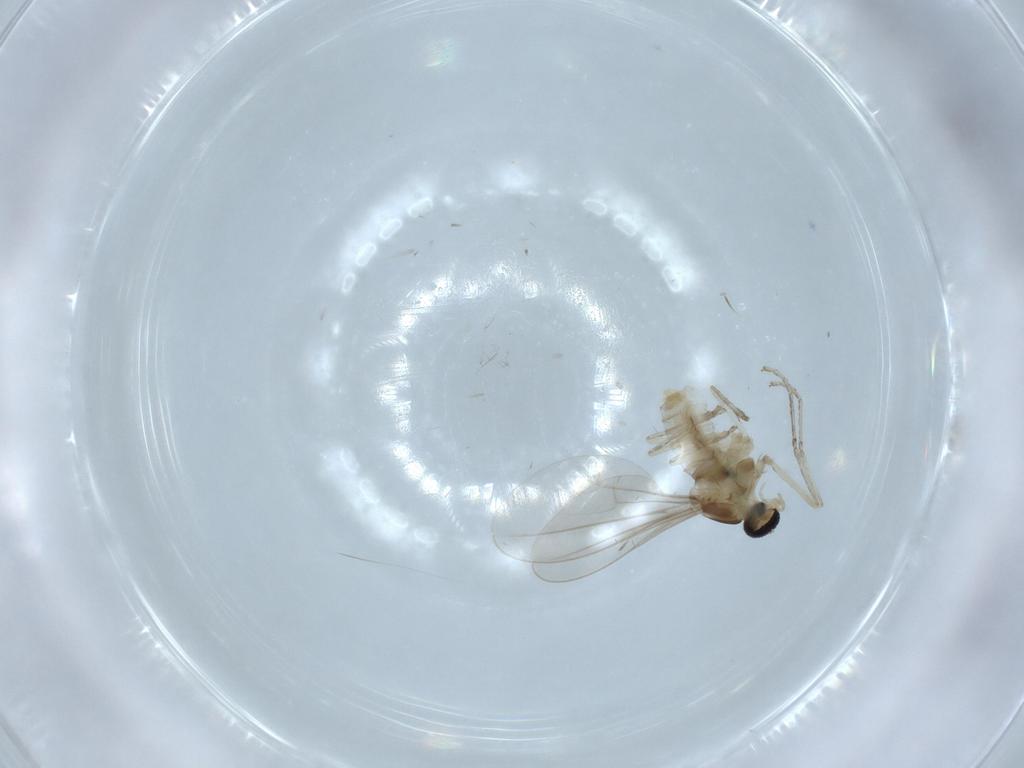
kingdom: Animalia
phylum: Arthropoda
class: Insecta
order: Diptera
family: Cecidomyiidae
